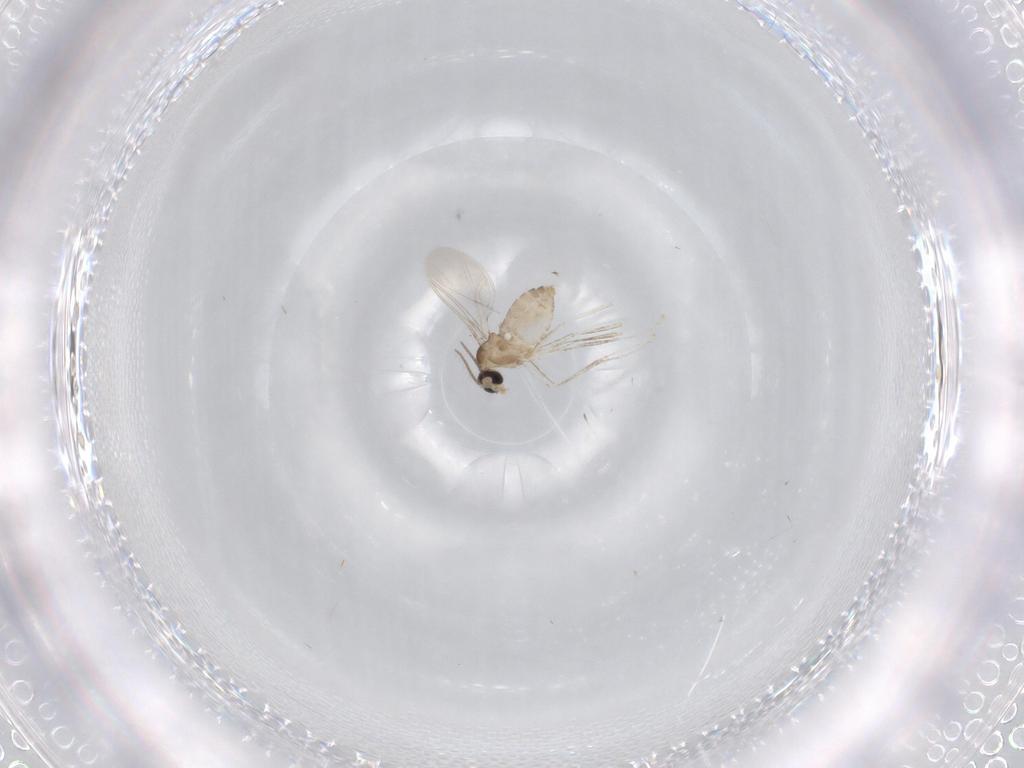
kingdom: Animalia
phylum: Arthropoda
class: Insecta
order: Diptera
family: Cecidomyiidae
